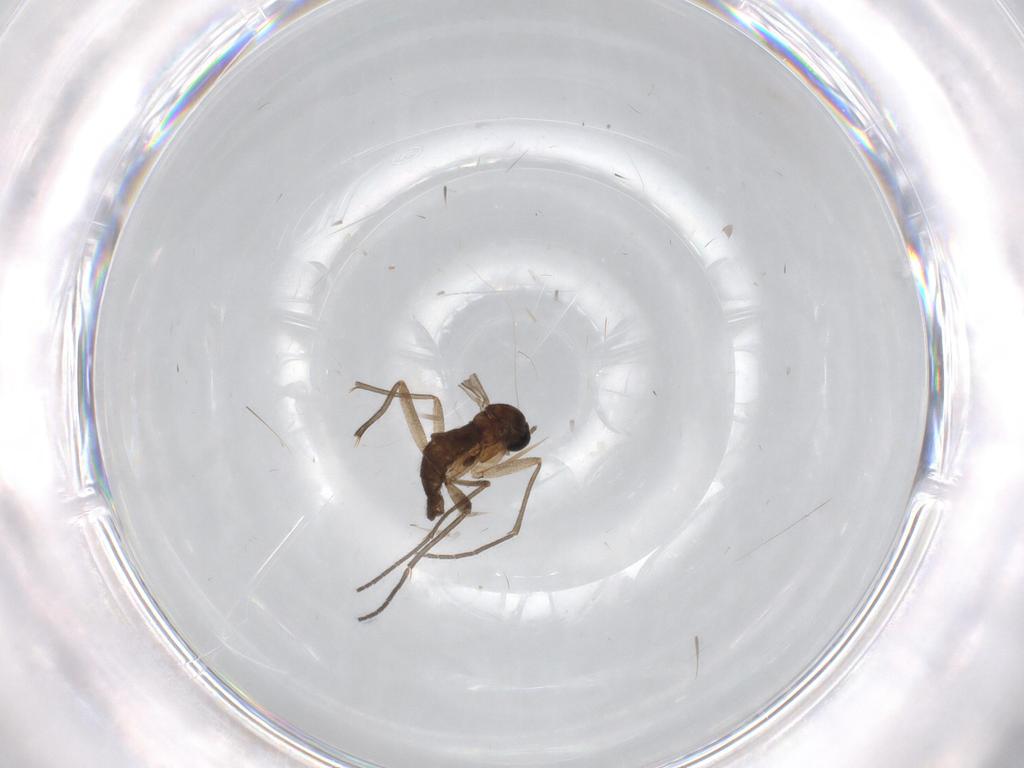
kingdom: Animalia
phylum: Arthropoda
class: Insecta
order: Diptera
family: Cecidomyiidae
